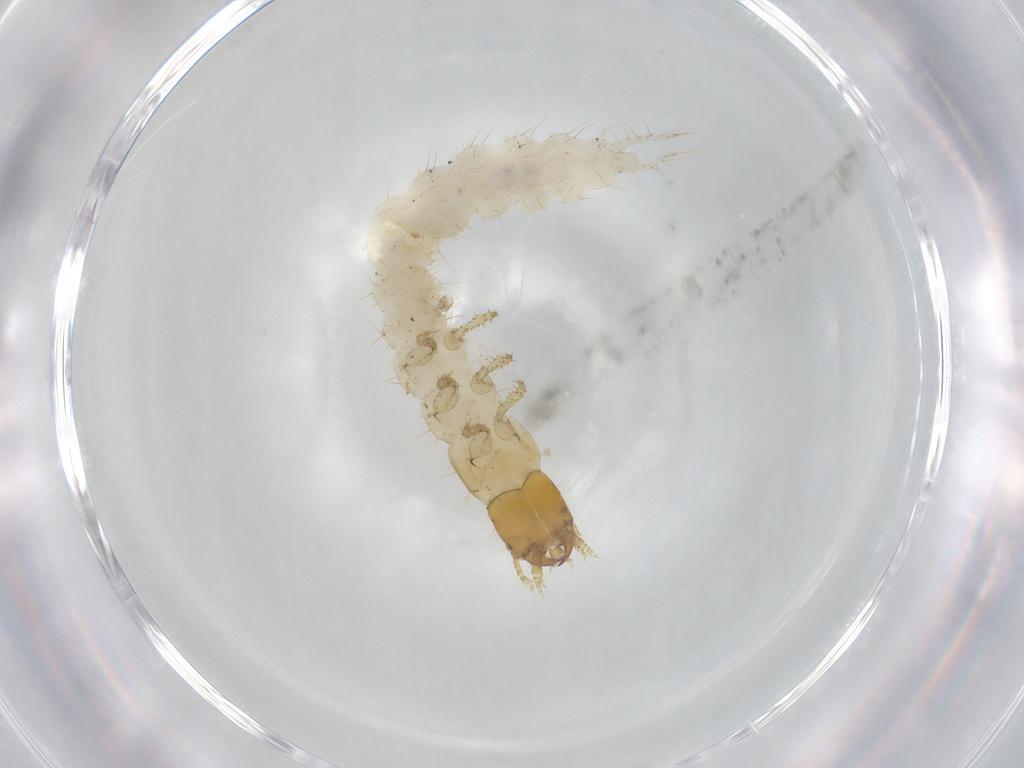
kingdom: Animalia
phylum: Arthropoda
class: Insecta
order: Coleoptera
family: Carabidae
